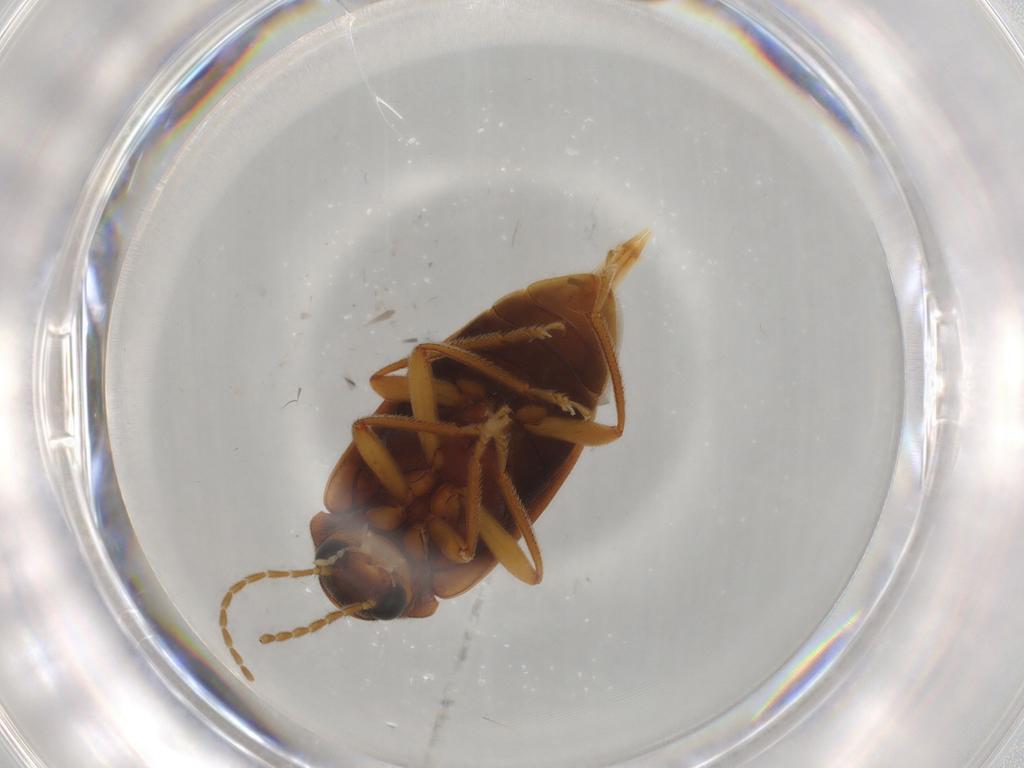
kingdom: Animalia
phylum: Arthropoda
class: Insecta
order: Coleoptera
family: Ptilodactylidae
